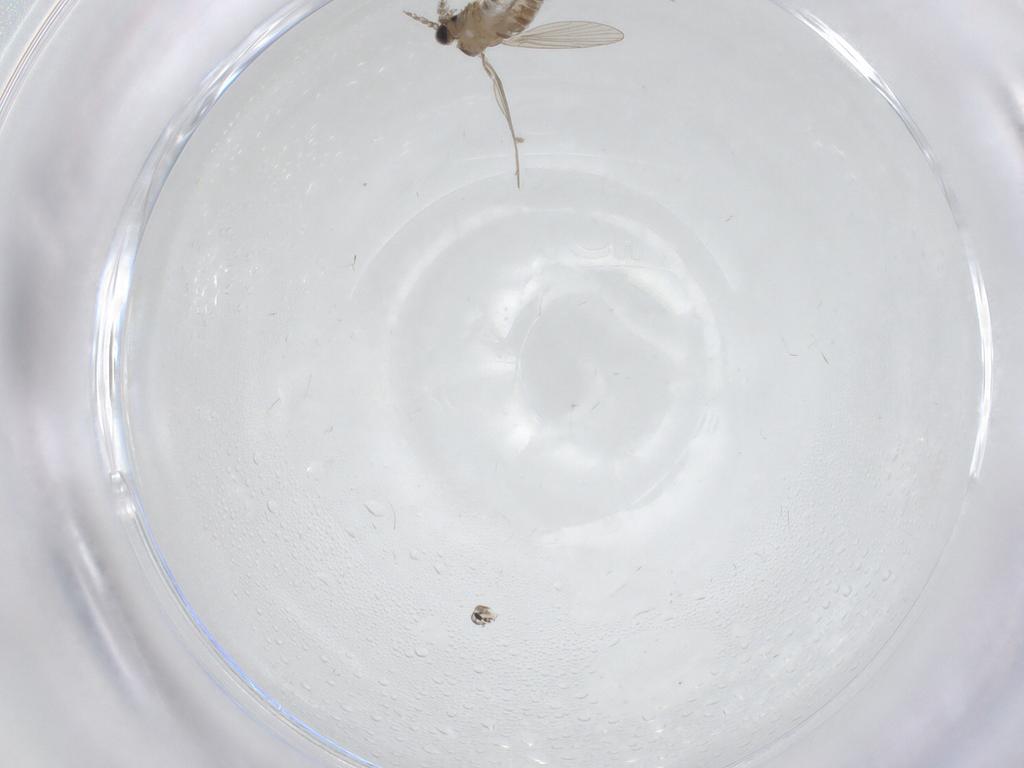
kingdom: Animalia
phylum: Arthropoda
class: Insecta
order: Diptera
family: Cecidomyiidae
